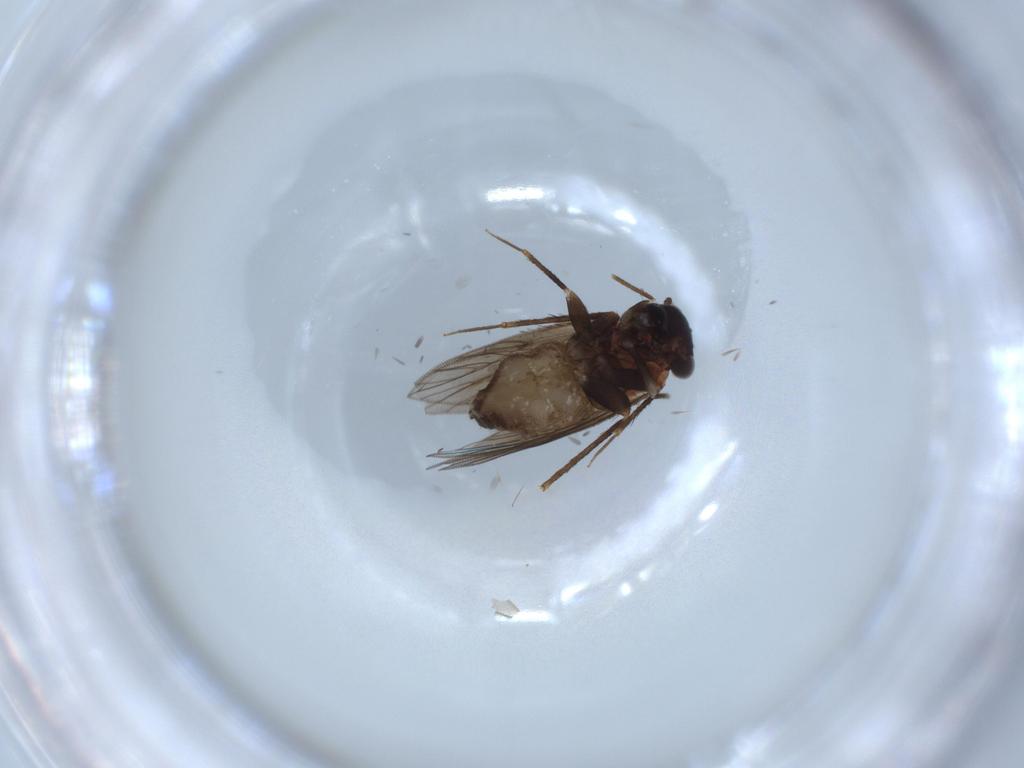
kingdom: Animalia
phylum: Arthropoda
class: Insecta
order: Psocodea
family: Lepidopsocidae
